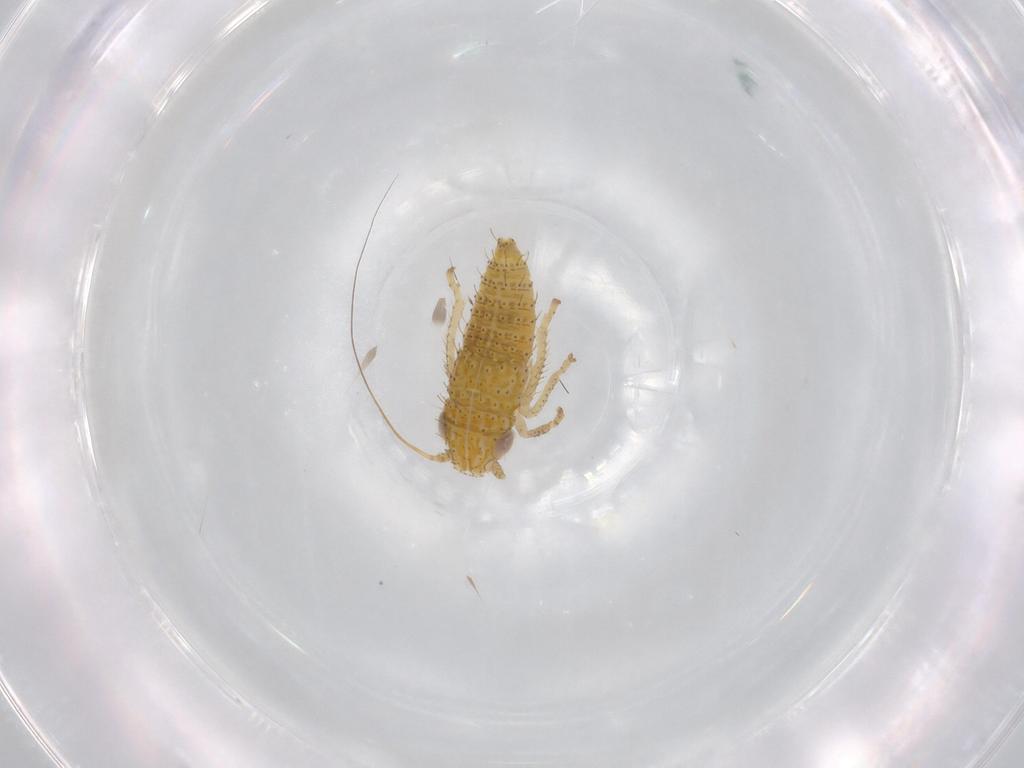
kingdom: Animalia
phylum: Arthropoda
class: Insecta
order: Hemiptera
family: Cicadellidae
